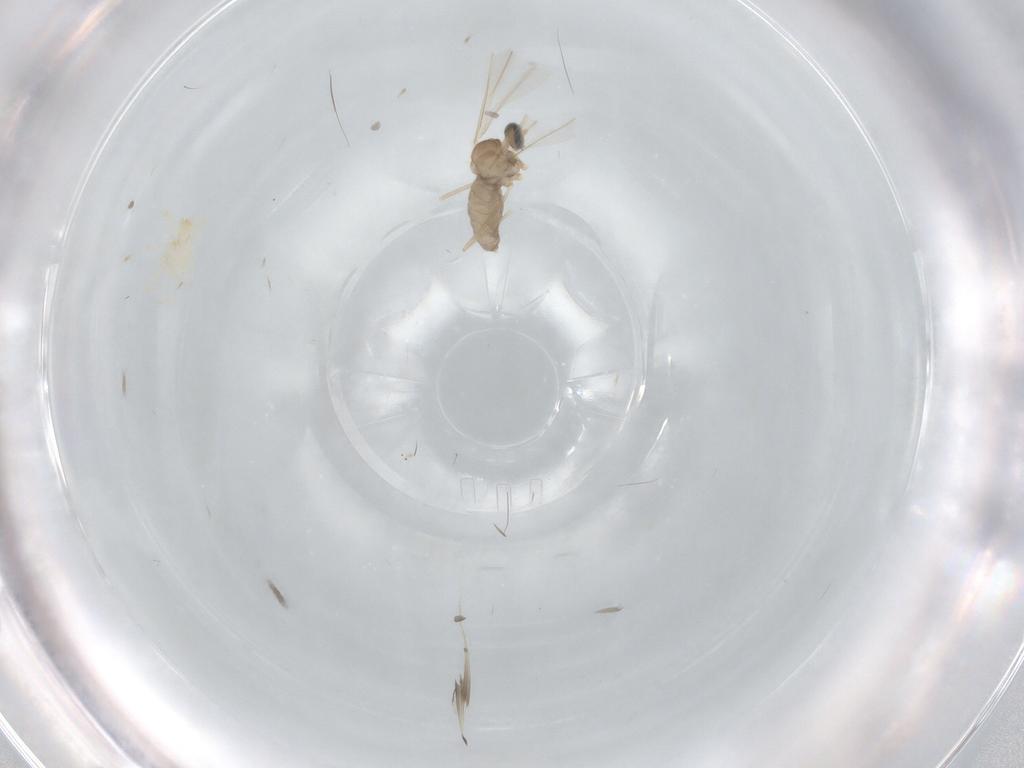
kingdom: Animalia
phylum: Arthropoda
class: Insecta
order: Diptera
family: Cecidomyiidae
